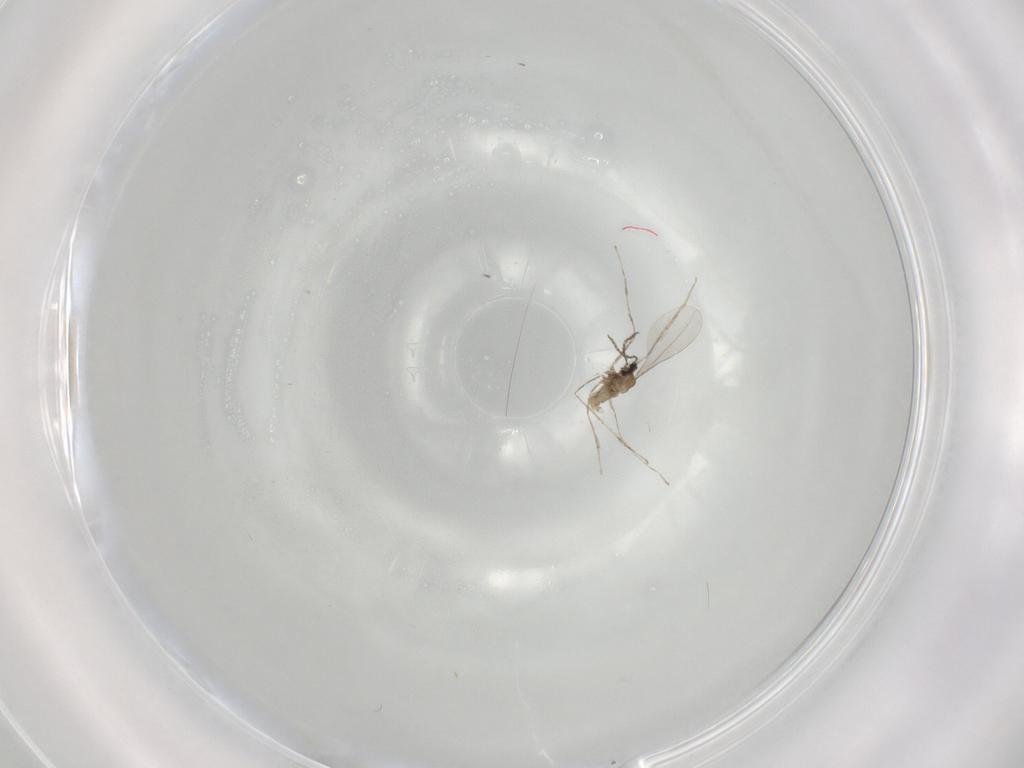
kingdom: Animalia
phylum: Arthropoda
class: Insecta
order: Diptera
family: Cecidomyiidae
